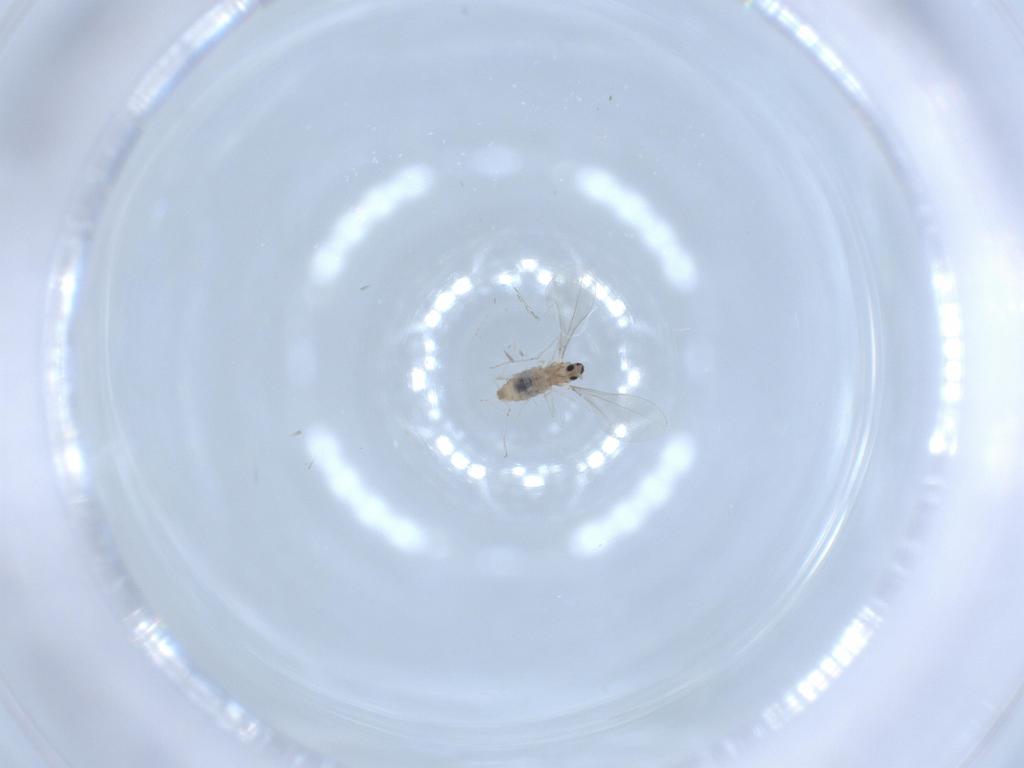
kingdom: Animalia
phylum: Arthropoda
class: Insecta
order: Diptera
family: Cecidomyiidae
